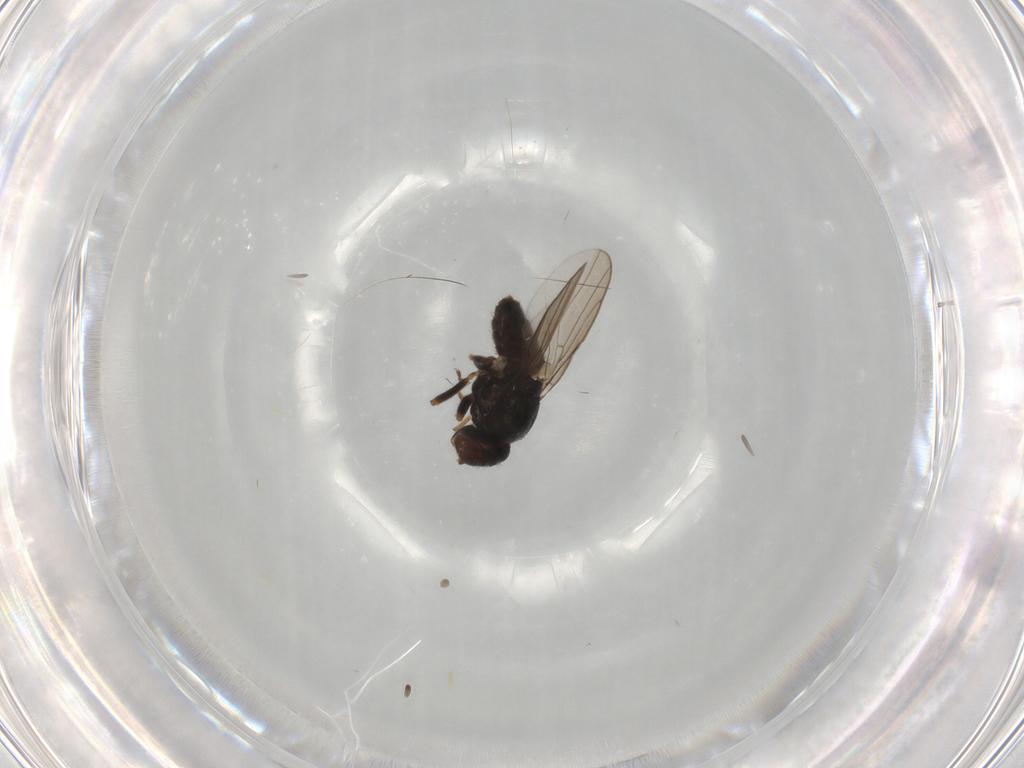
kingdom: Animalia
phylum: Arthropoda
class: Insecta
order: Diptera
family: Chloropidae
